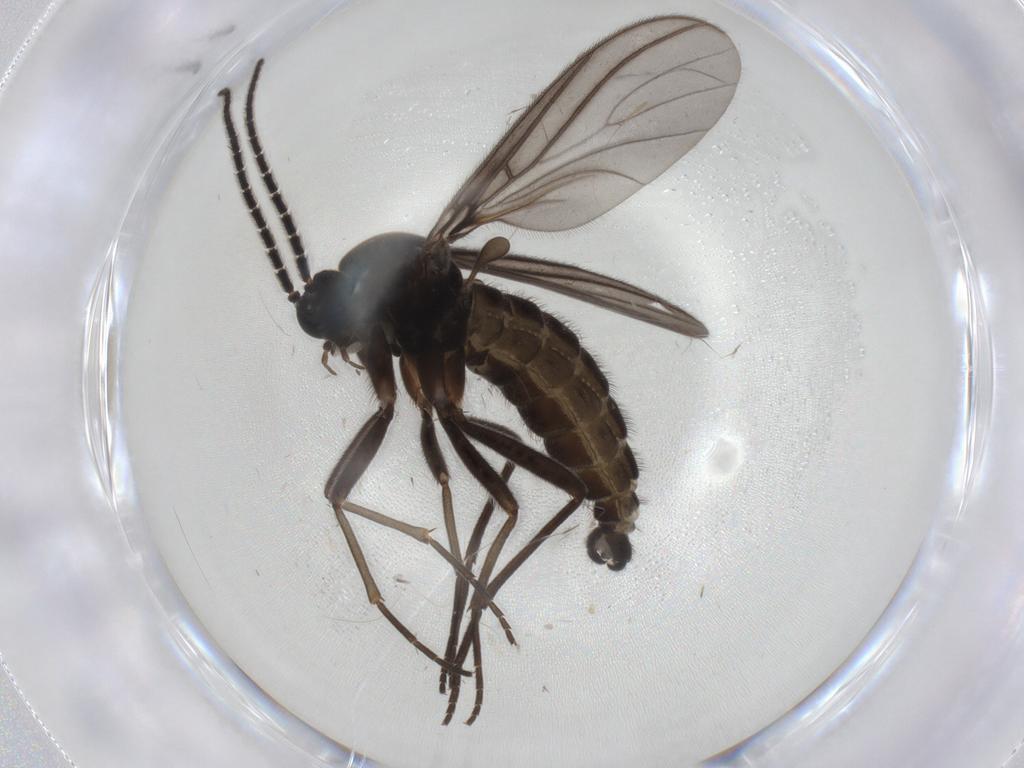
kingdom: Animalia
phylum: Arthropoda
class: Insecta
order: Diptera
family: Sciaridae
